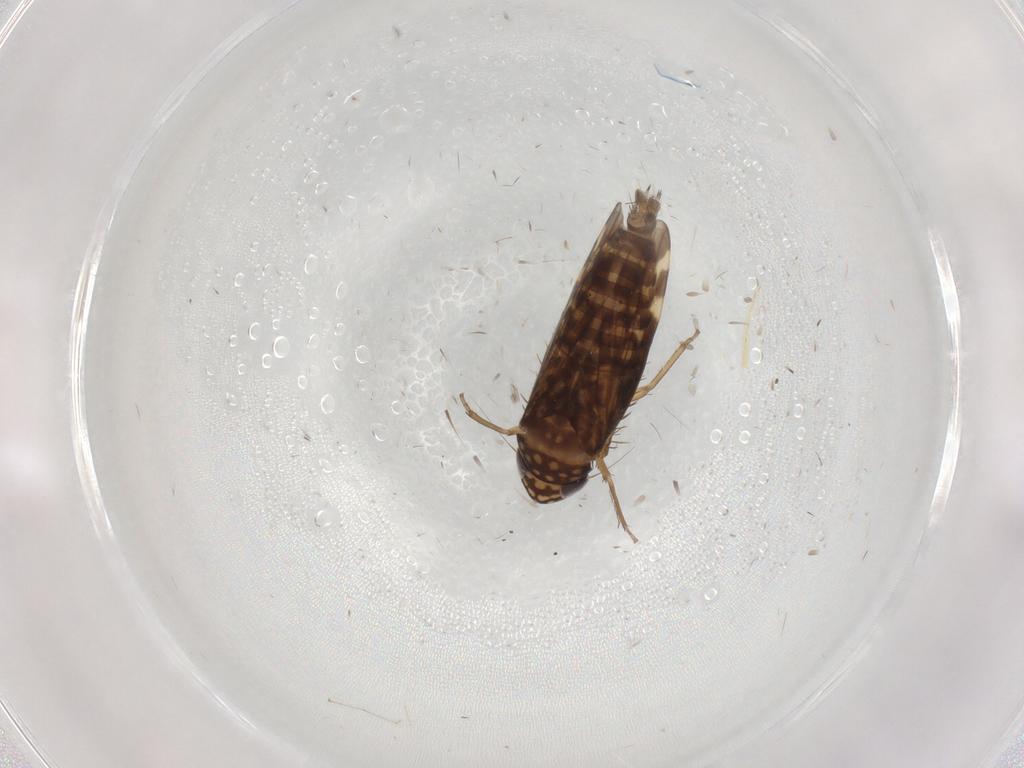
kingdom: Animalia
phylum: Arthropoda
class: Insecta
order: Hemiptera
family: Cicadellidae
